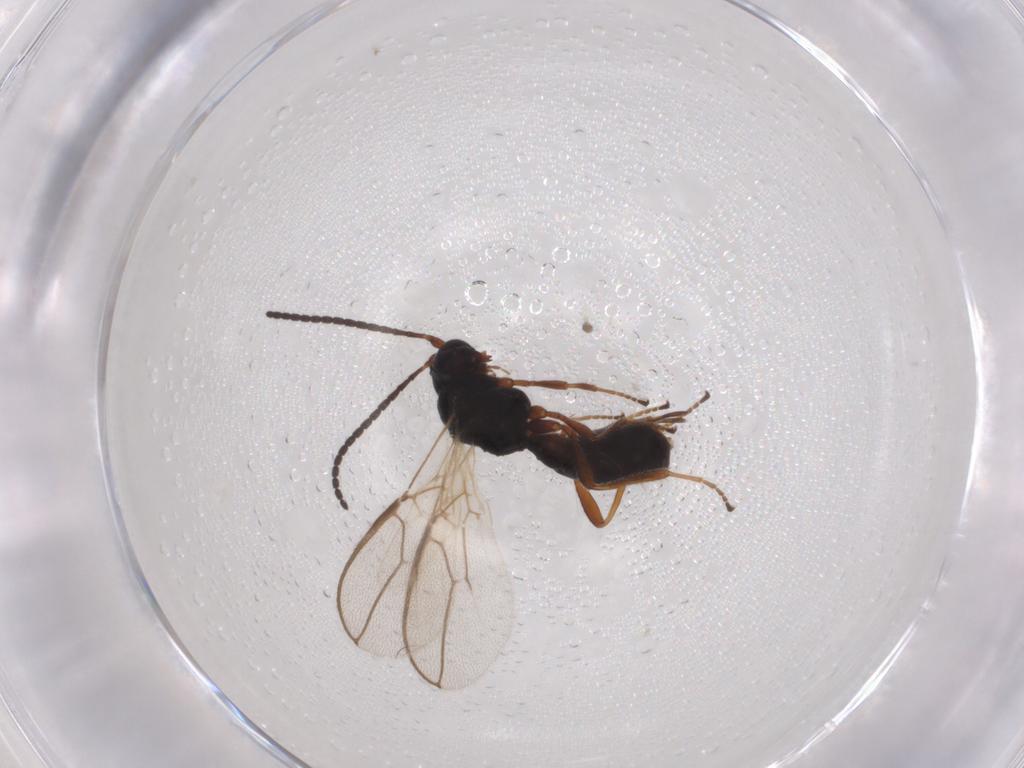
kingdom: Animalia
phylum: Arthropoda
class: Insecta
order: Hymenoptera
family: Braconidae
